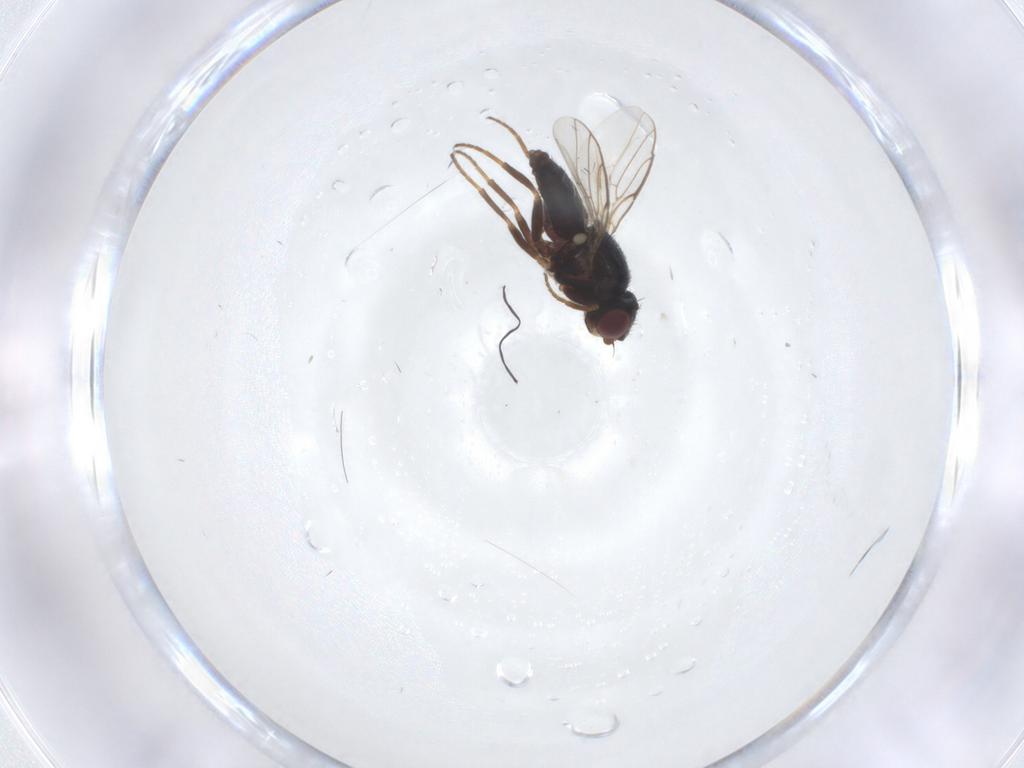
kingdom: Animalia
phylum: Arthropoda
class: Insecta
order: Diptera
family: Chloropidae
